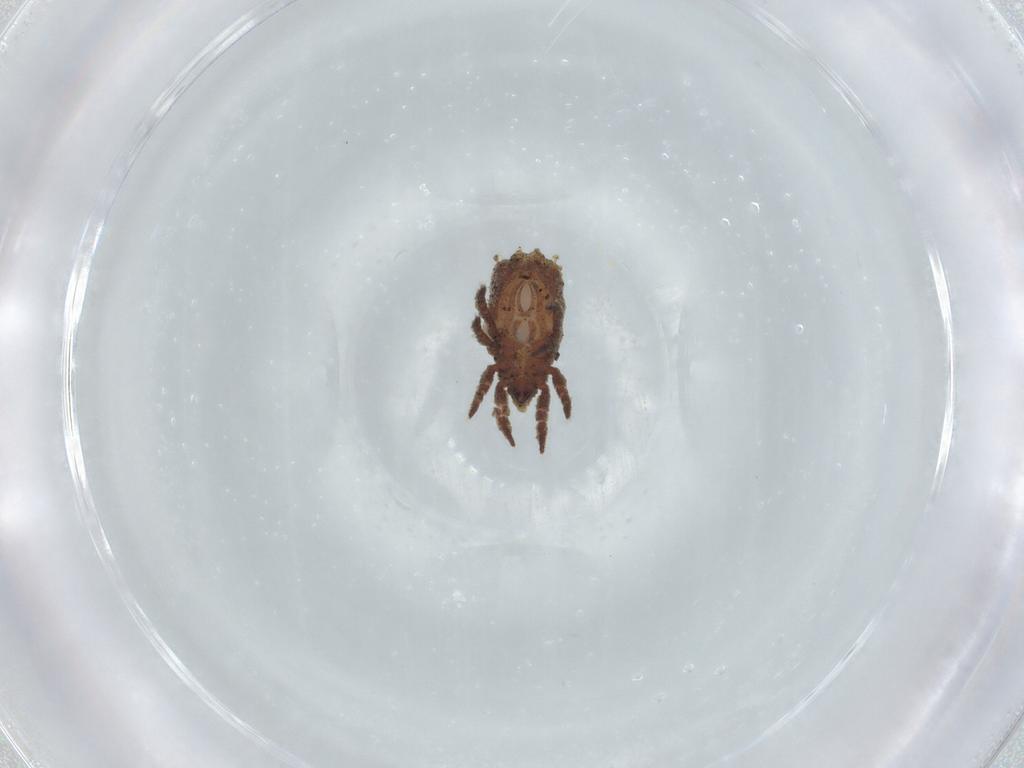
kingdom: Animalia
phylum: Arthropoda
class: Arachnida
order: Sarcoptiformes
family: Crotoniidae
